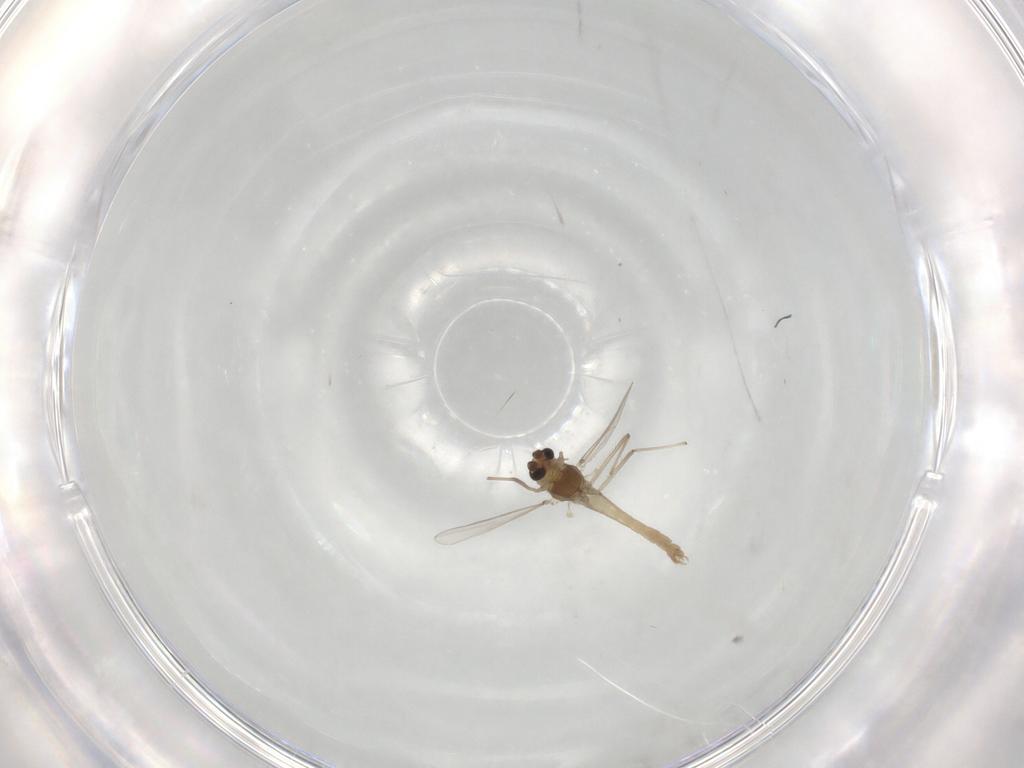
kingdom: Animalia
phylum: Arthropoda
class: Insecta
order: Diptera
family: Chironomidae
